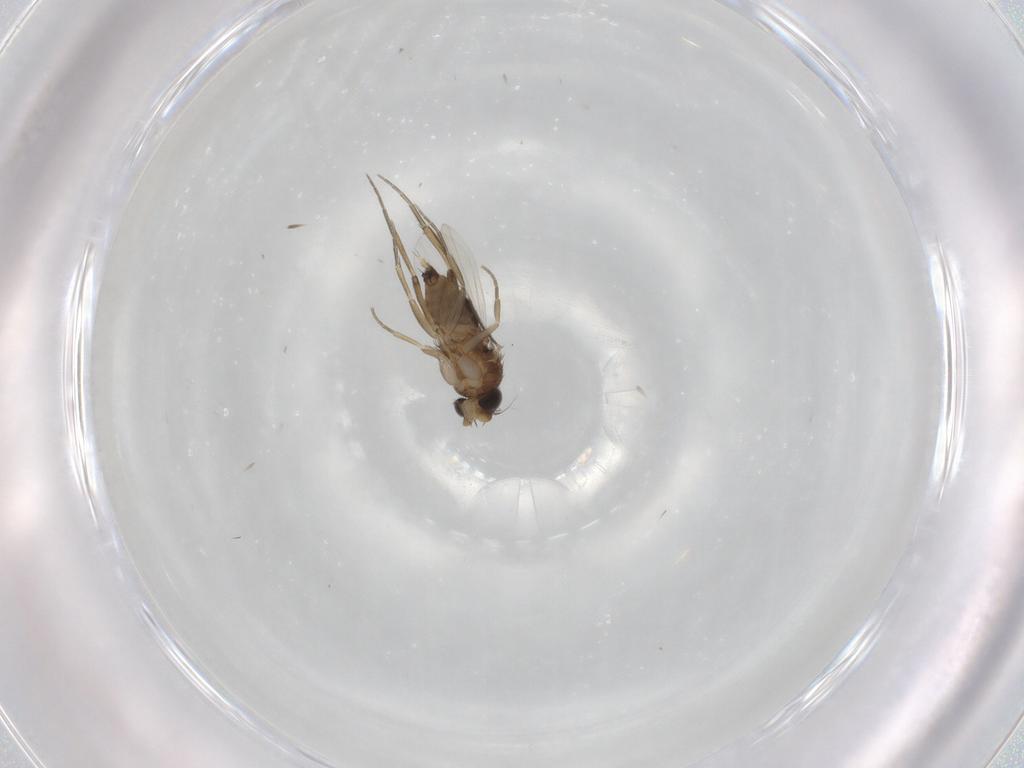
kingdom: Animalia
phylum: Arthropoda
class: Insecta
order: Diptera
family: Phoridae
